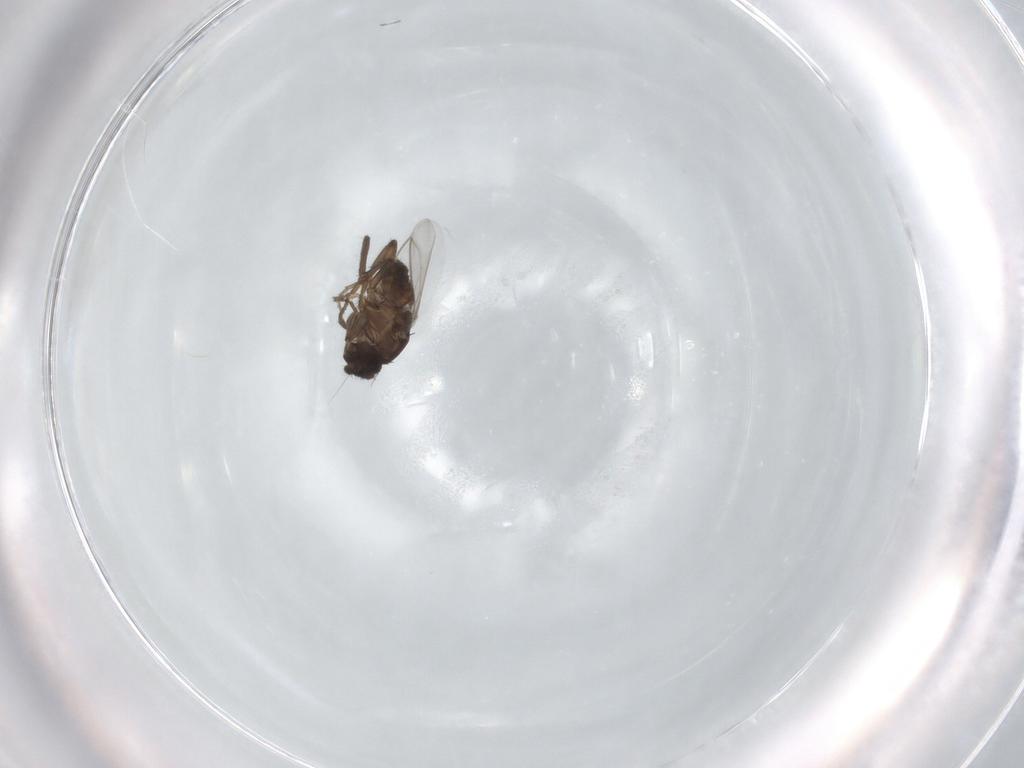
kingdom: Animalia
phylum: Arthropoda
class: Insecta
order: Diptera
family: Cecidomyiidae
